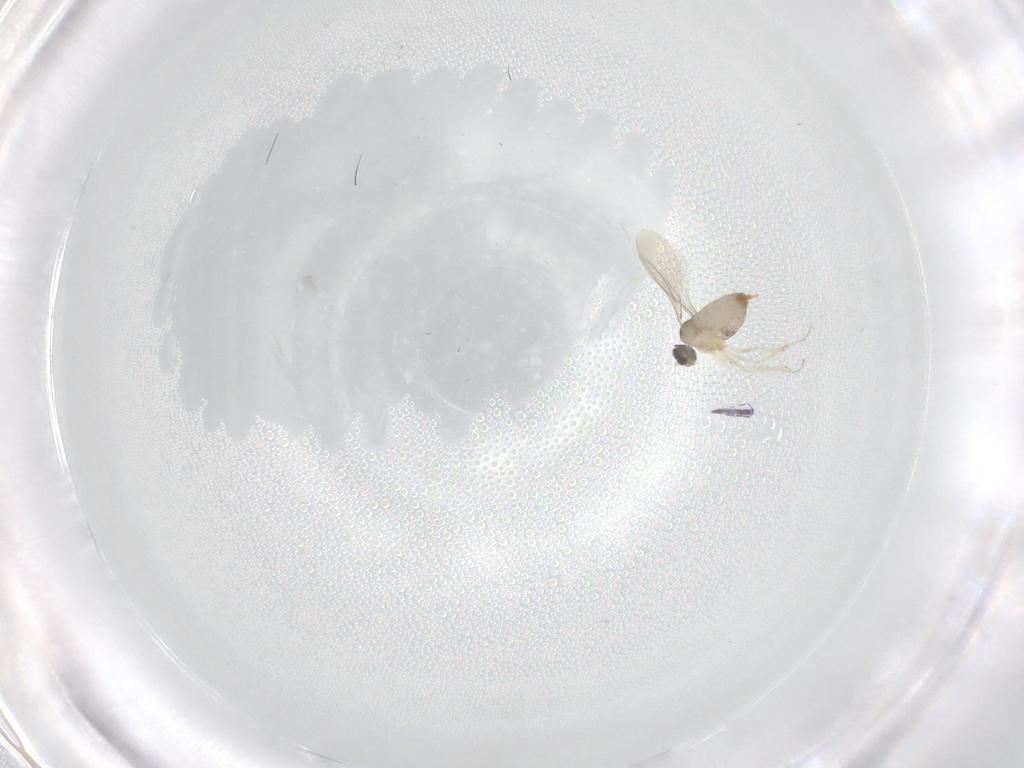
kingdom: Animalia
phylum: Arthropoda
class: Insecta
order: Diptera
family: Cecidomyiidae
